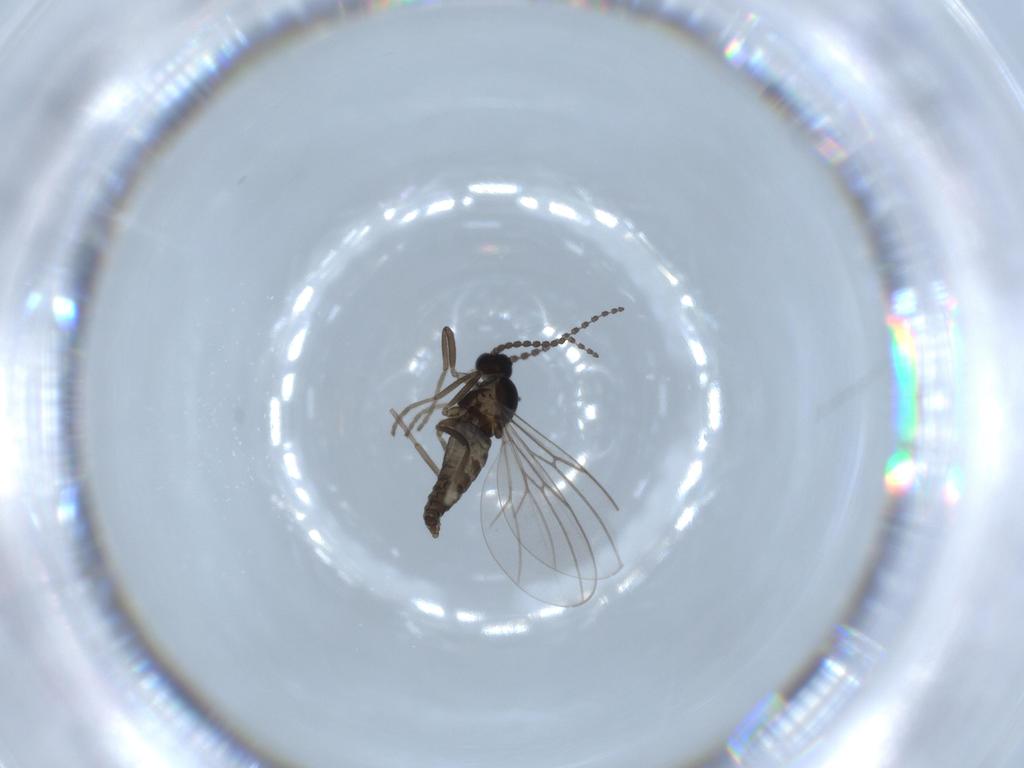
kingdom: Animalia
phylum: Arthropoda
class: Insecta
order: Diptera
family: Cecidomyiidae
